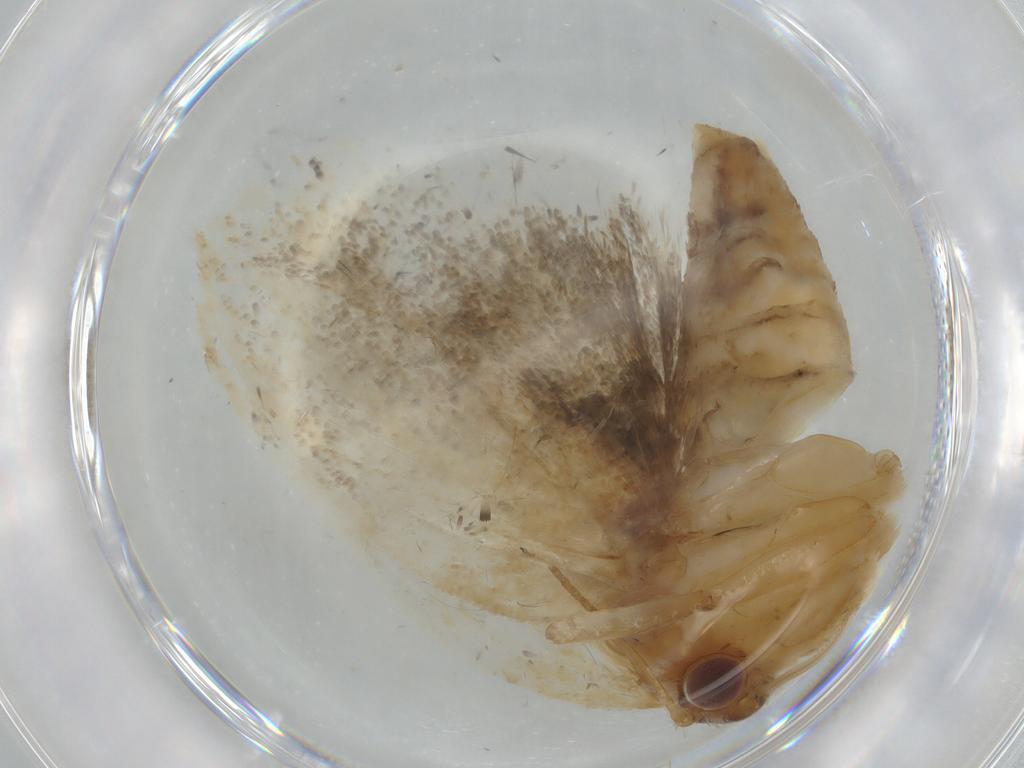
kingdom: Animalia
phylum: Arthropoda
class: Insecta
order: Lepidoptera
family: Tortricidae
